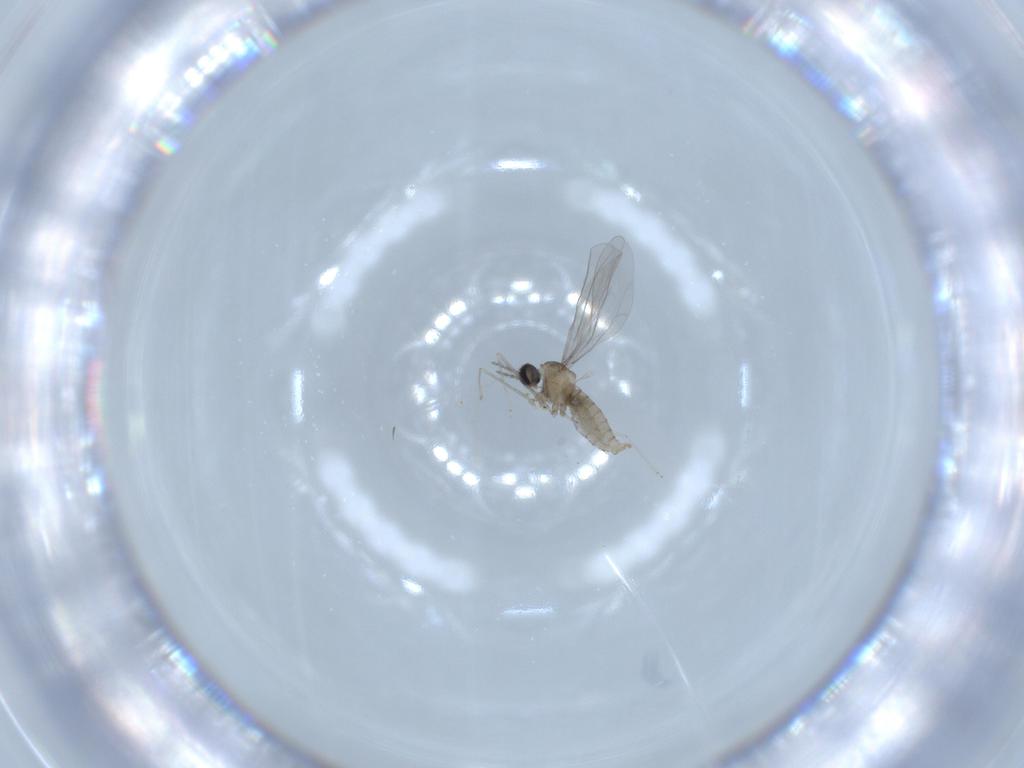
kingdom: Animalia
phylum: Arthropoda
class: Insecta
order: Diptera
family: Cecidomyiidae
